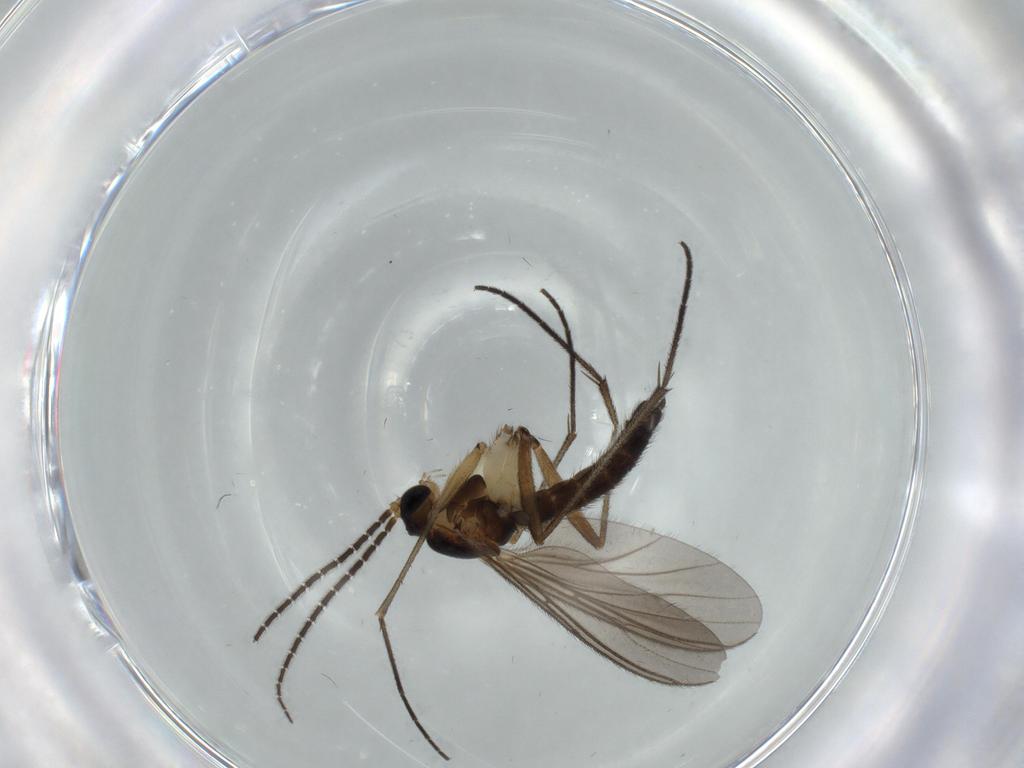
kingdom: Animalia
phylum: Arthropoda
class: Insecta
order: Diptera
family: Sciaridae
